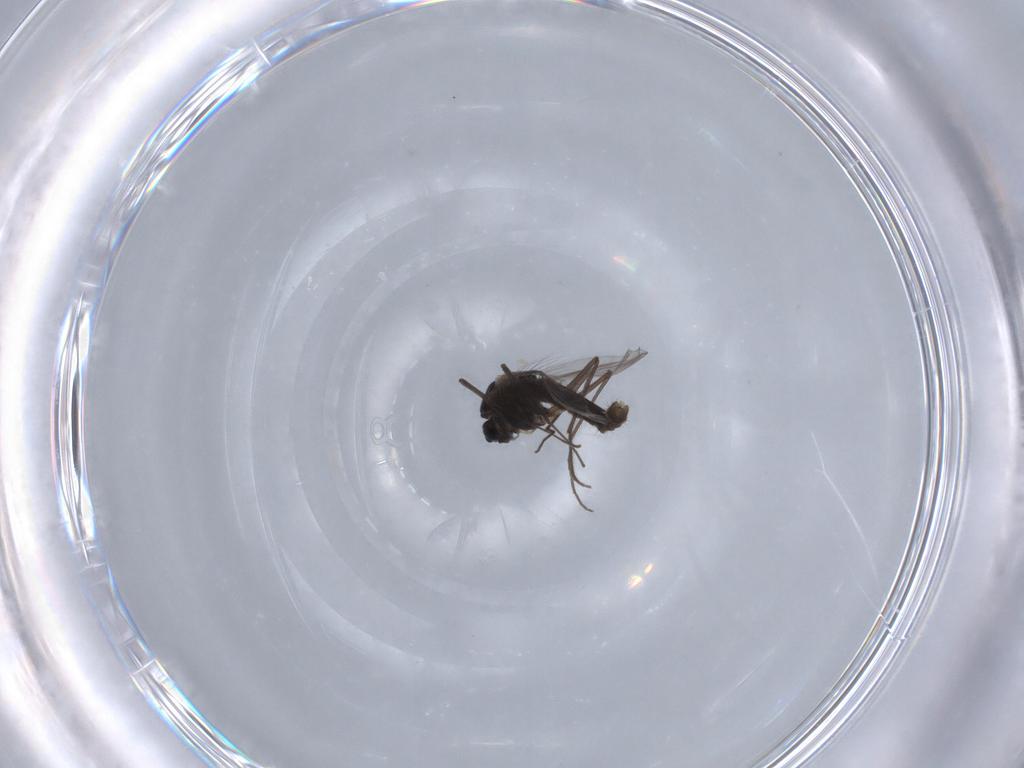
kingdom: Animalia
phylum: Arthropoda
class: Insecta
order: Diptera
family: Chironomidae
